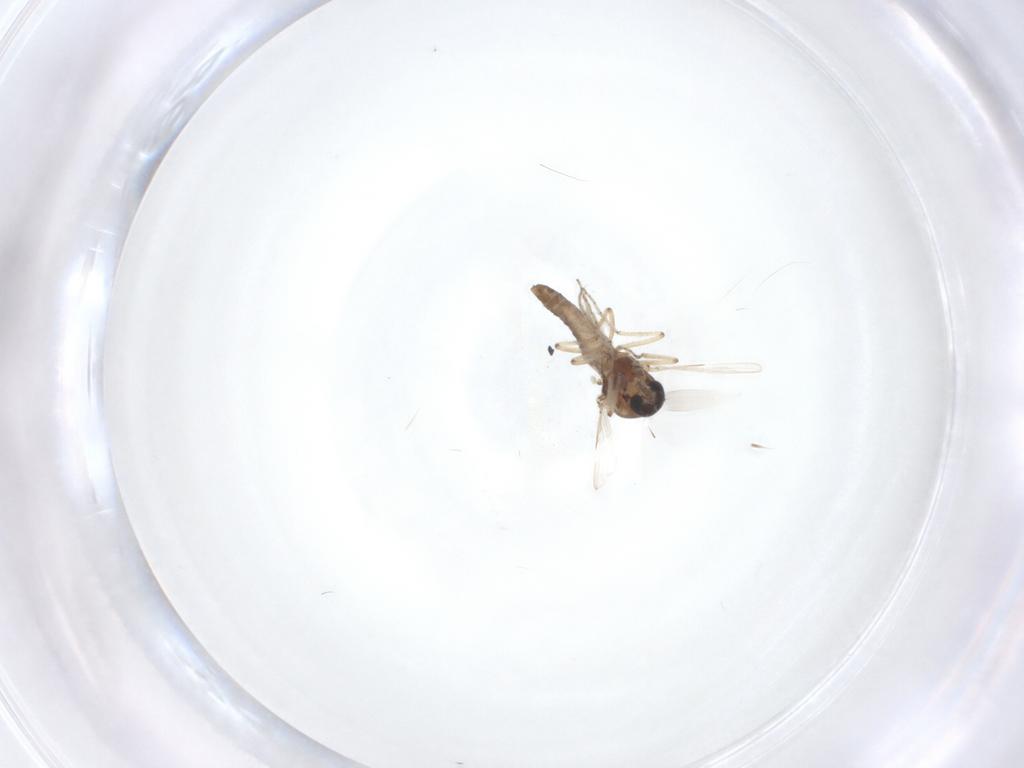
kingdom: Animalia
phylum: Arthropoda
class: Insecta
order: Diptera
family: Ceratopogonidae
